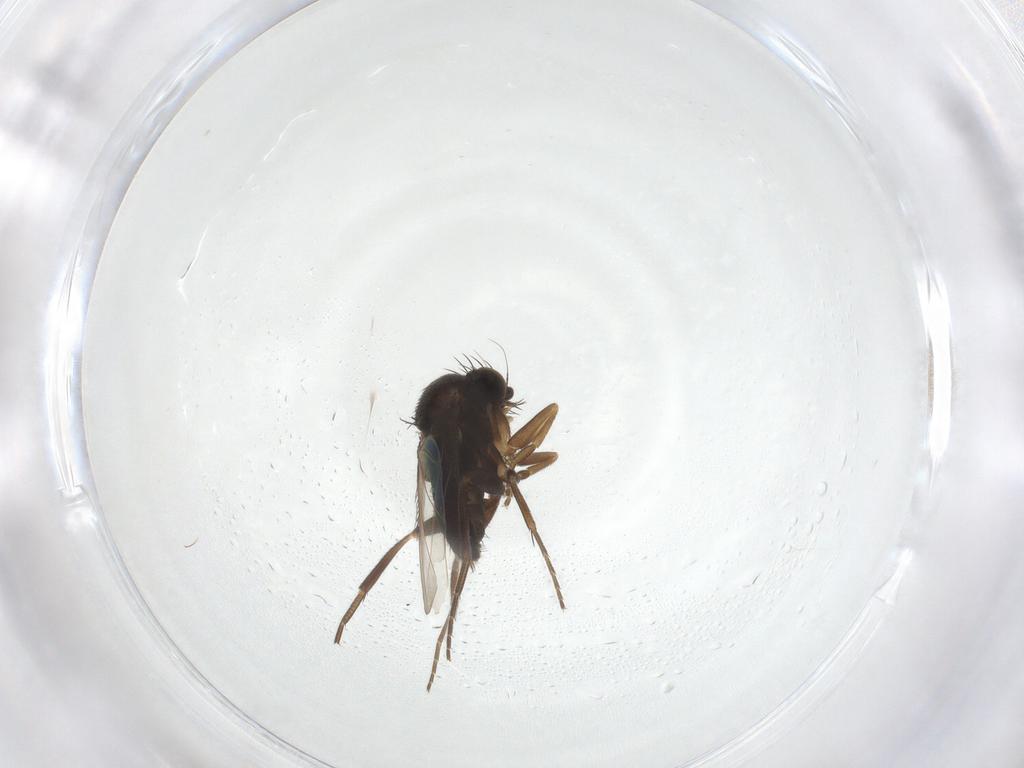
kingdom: Animalia
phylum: Arthropoda
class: Insecta
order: Diptera
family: Phoridae
